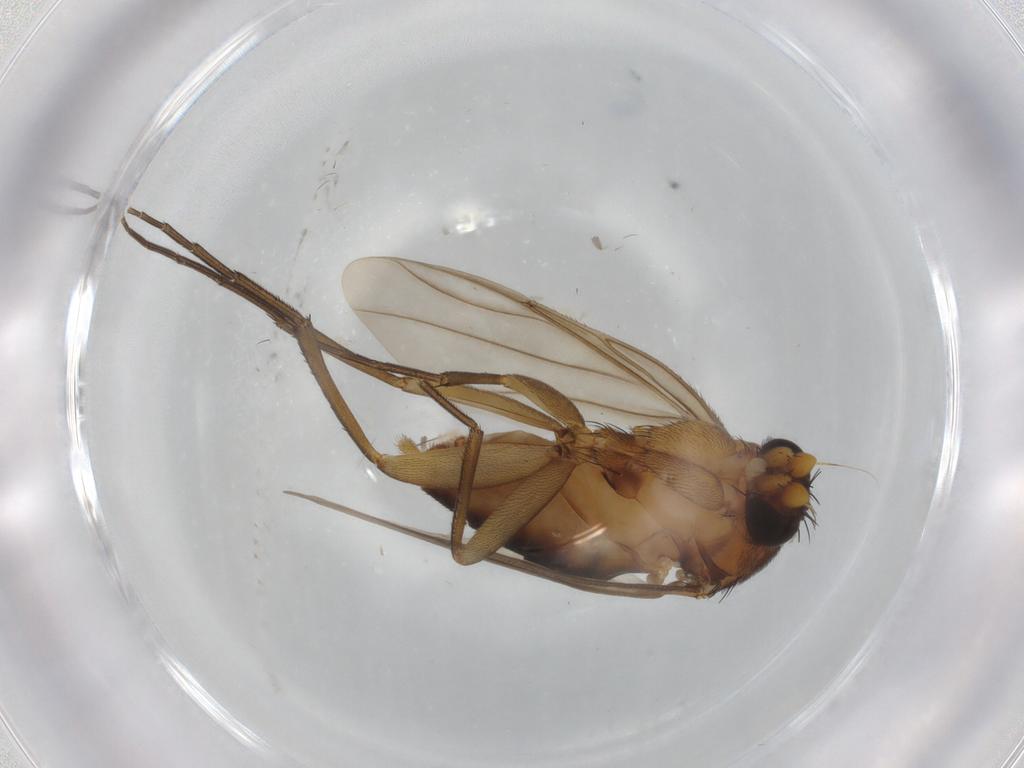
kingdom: Animalia
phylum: Arthropoda
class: Insecta
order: Diptera
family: Phoridae
